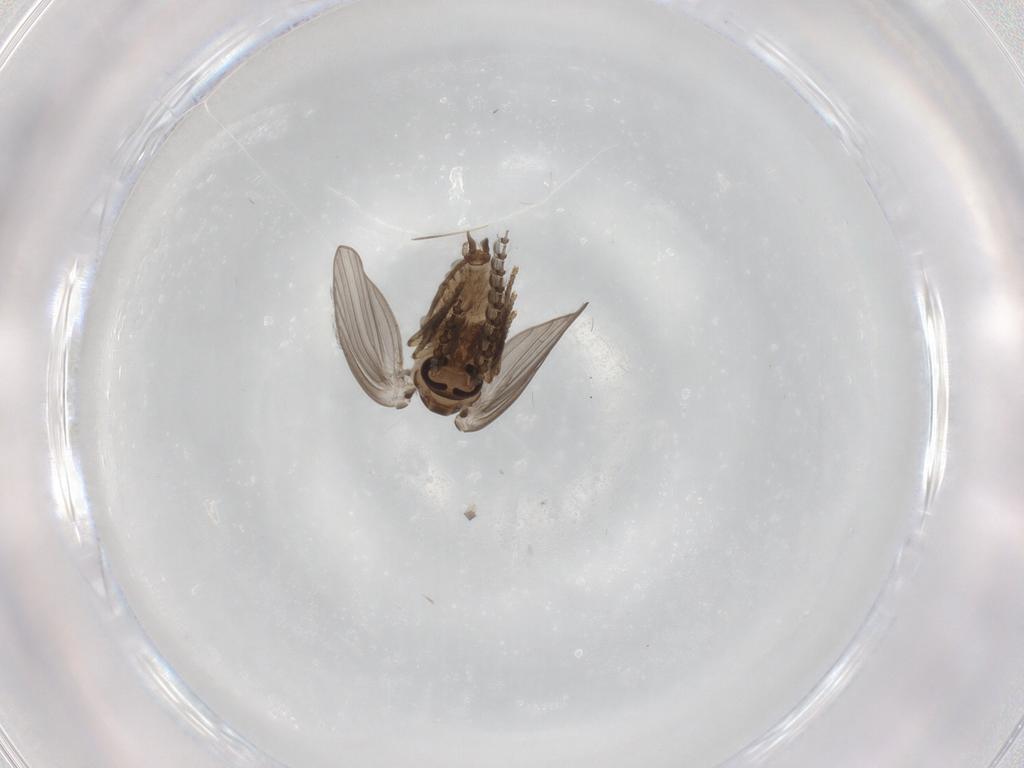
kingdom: Animalia
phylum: Arthropoda
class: Insecta
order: Diptera
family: Psychodidae
